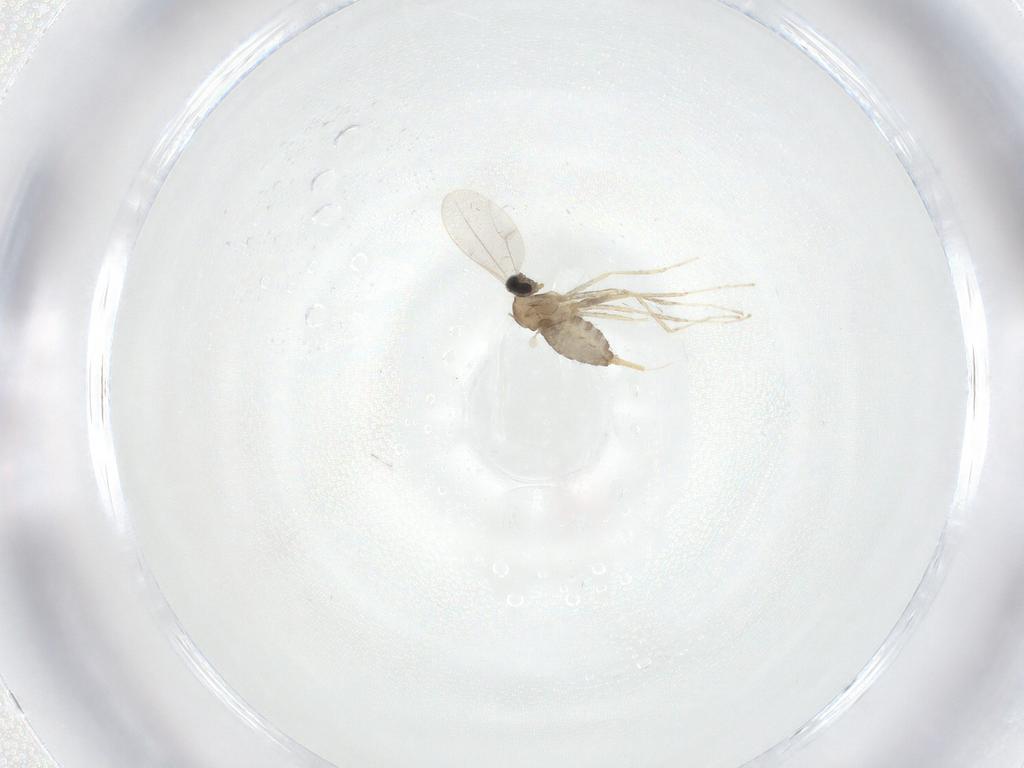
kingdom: Animalia
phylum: Arthropoda
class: Insecta
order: Diptera
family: Cecidomyiidae
